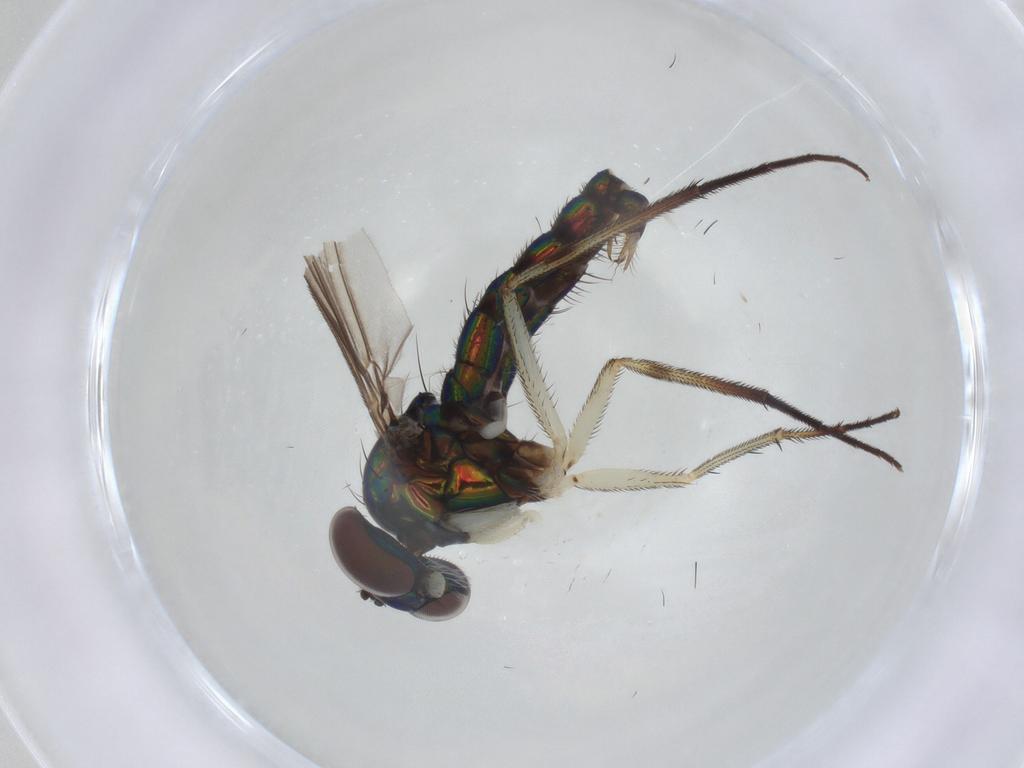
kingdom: Animalia
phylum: Arthropoda
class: Insecta
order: Diptera
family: Dolichopodidae
